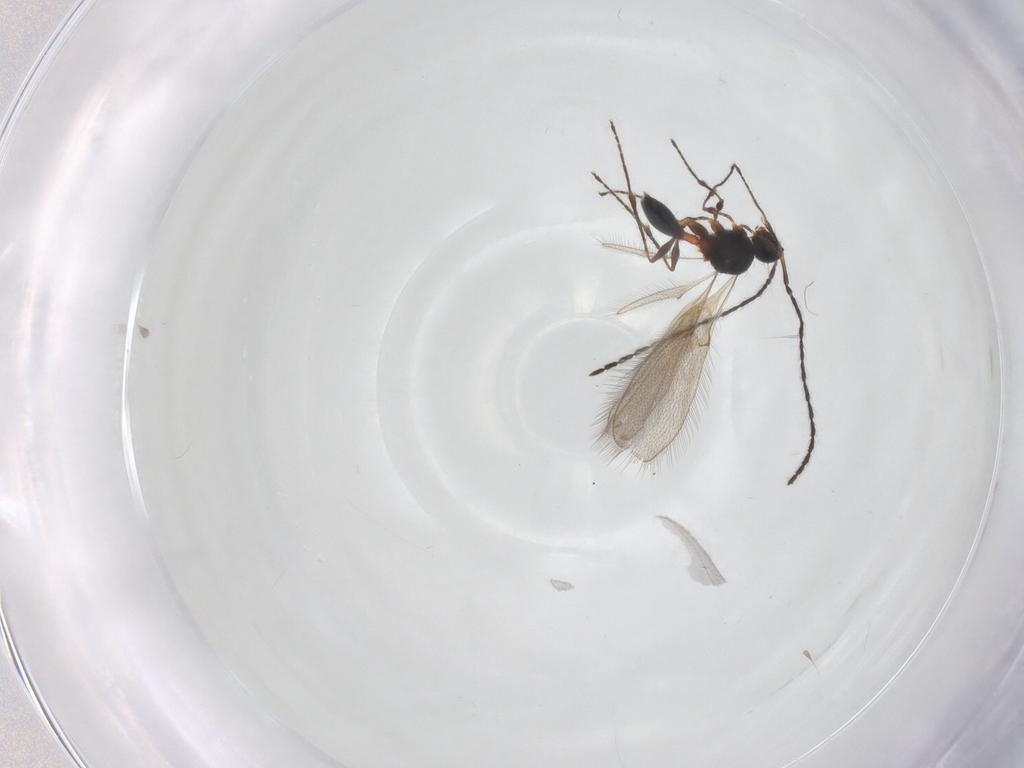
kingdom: Animalia
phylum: Arthropoda
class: Insecta
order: Hymenoptera
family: Diapriidae
